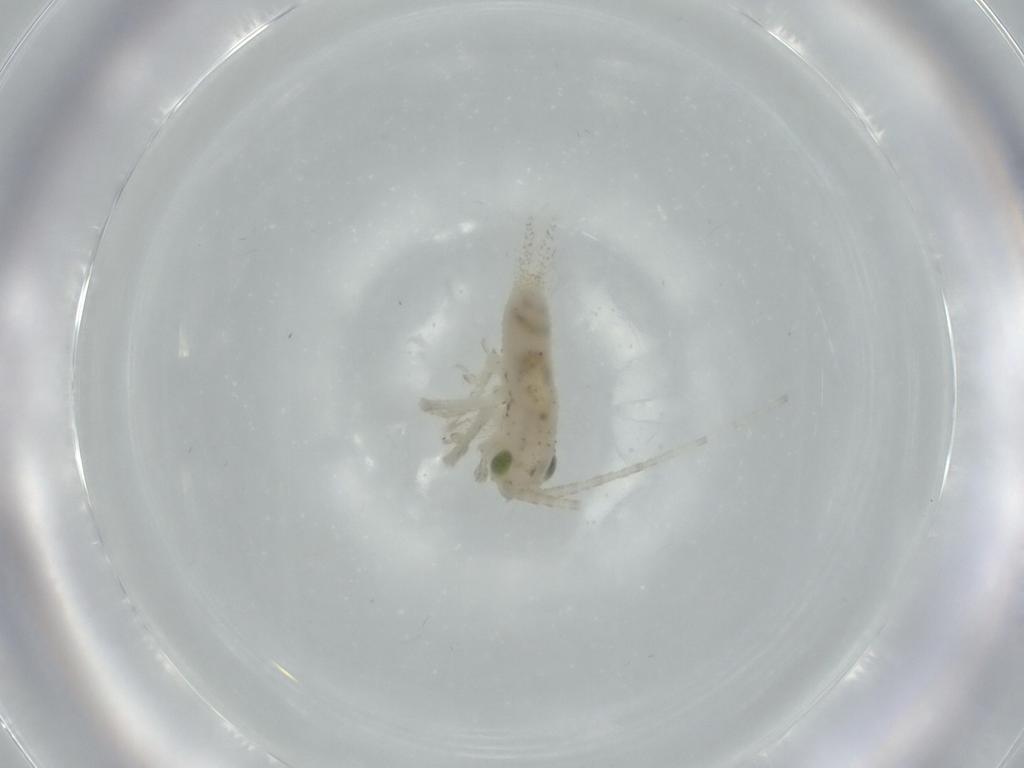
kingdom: Animalia
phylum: Arthropoda
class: Insecta
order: Orthoptera
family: Trigonidiidae
